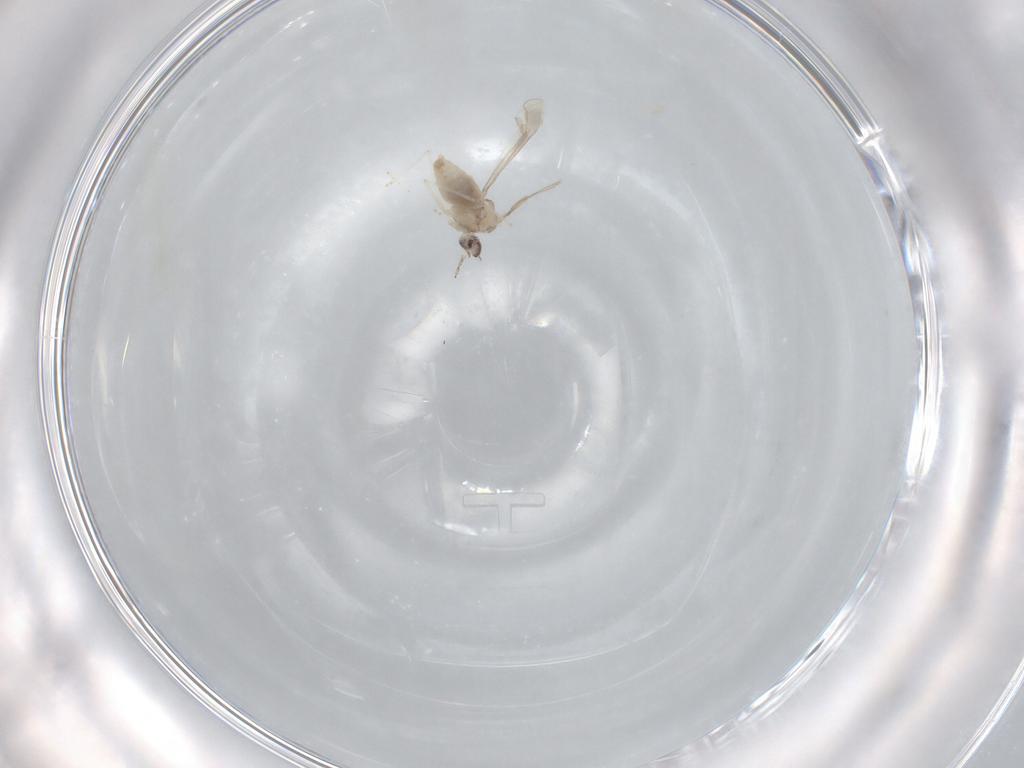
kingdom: Animalia
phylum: Arthropoda
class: Insecta
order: Diptera
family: Cecidomyiidae
